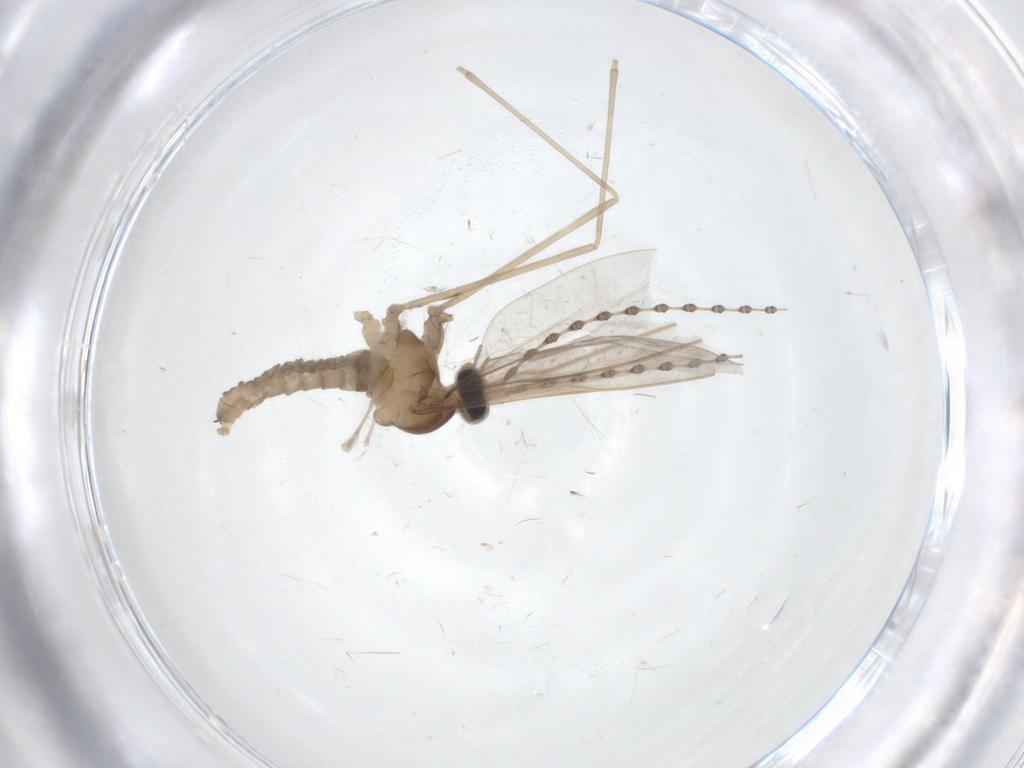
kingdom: Animalia
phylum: Arthropoda
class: Insecta
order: Diptera
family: Cecidomyiidae
